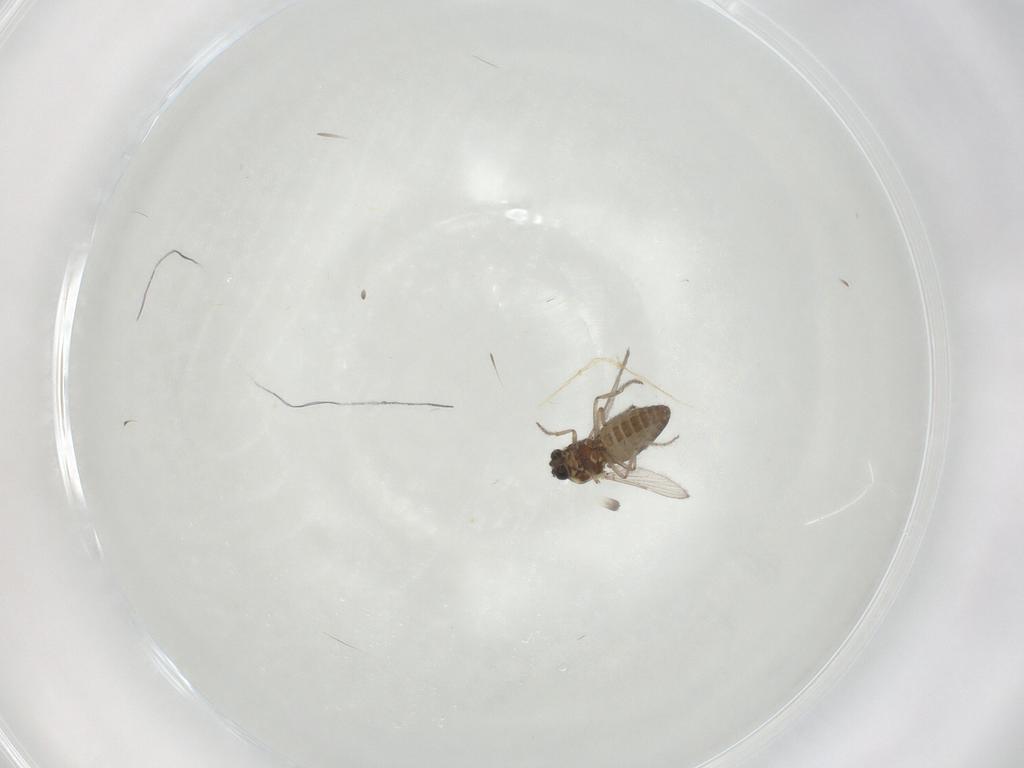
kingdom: Animalia
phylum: Arthropoda
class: Insecta
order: Diptera
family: Ceratopogonidae
